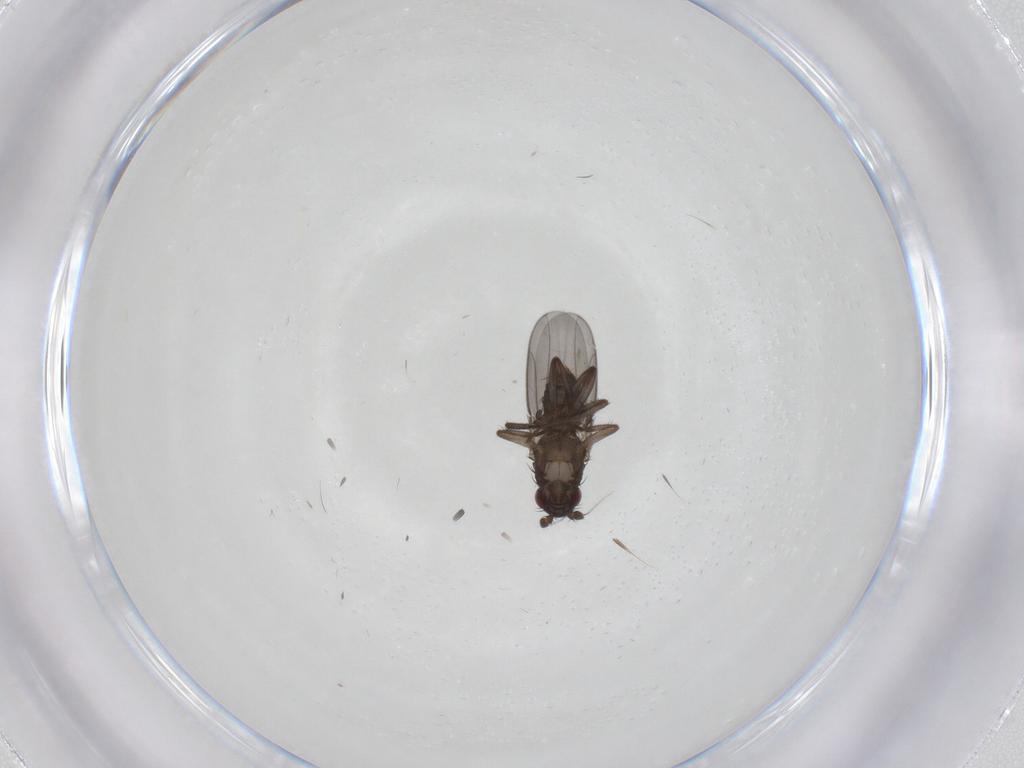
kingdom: Animalia
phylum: Arthropoda
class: Insecta
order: Diptera
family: Sphaeroceridae
